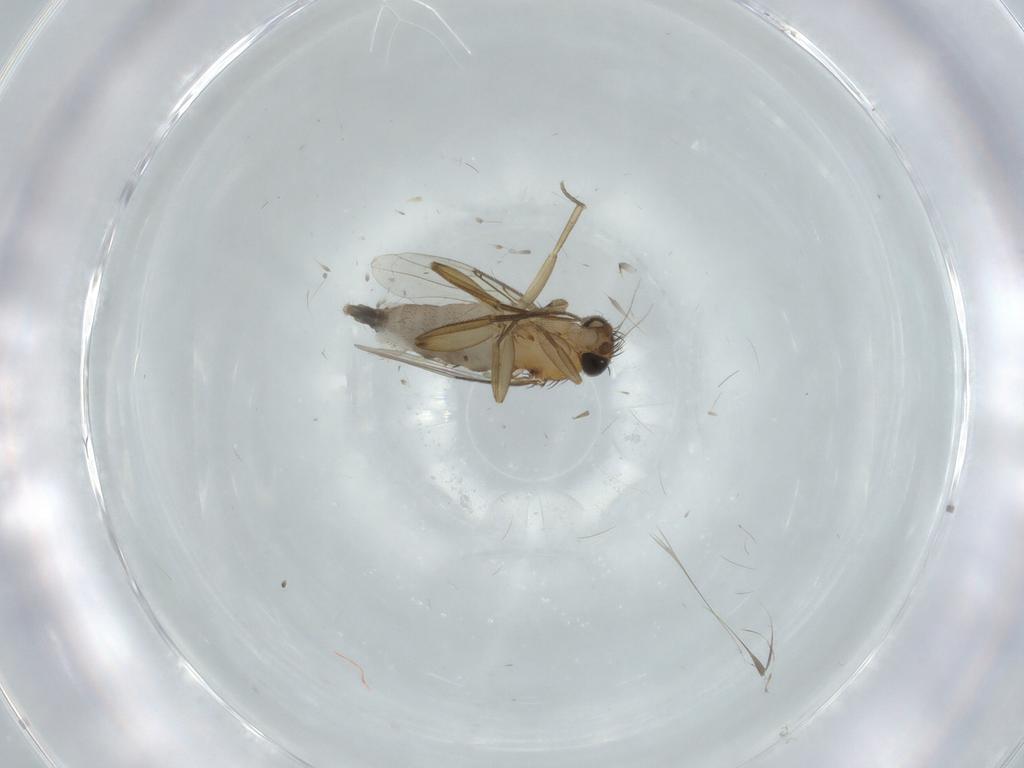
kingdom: Animalia
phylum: Arthropoda
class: Insecta
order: Diptera
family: Phoridae
